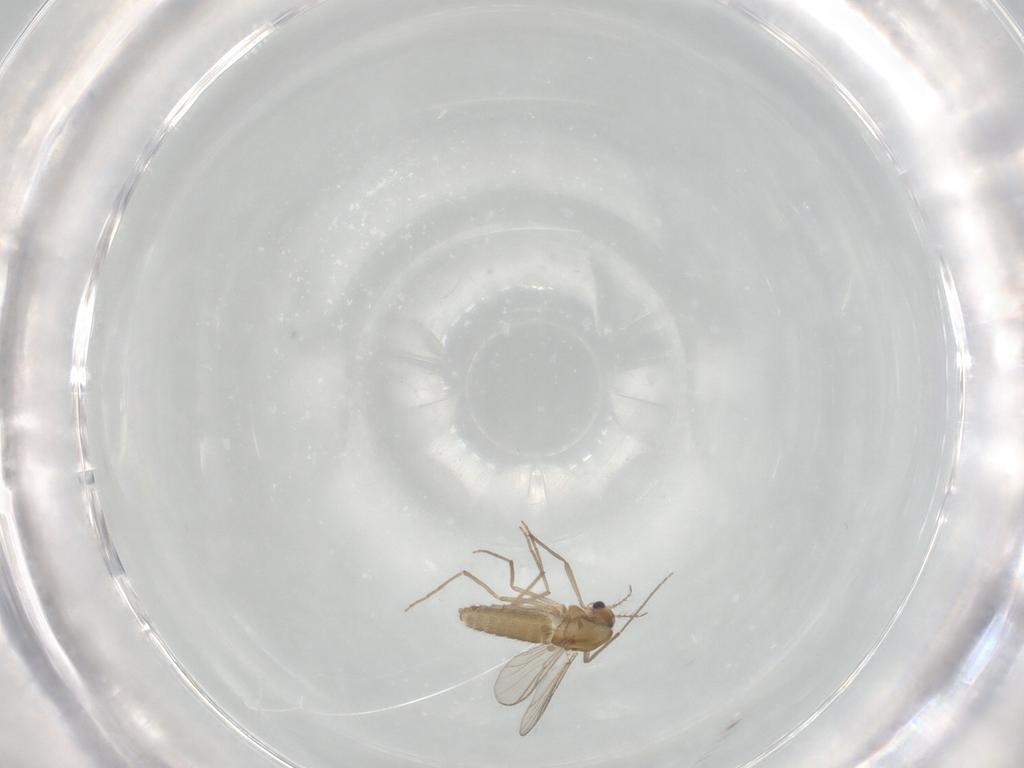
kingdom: Animalia
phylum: Arthropoda
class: Insecta
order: Diptera
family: Chironomidae
